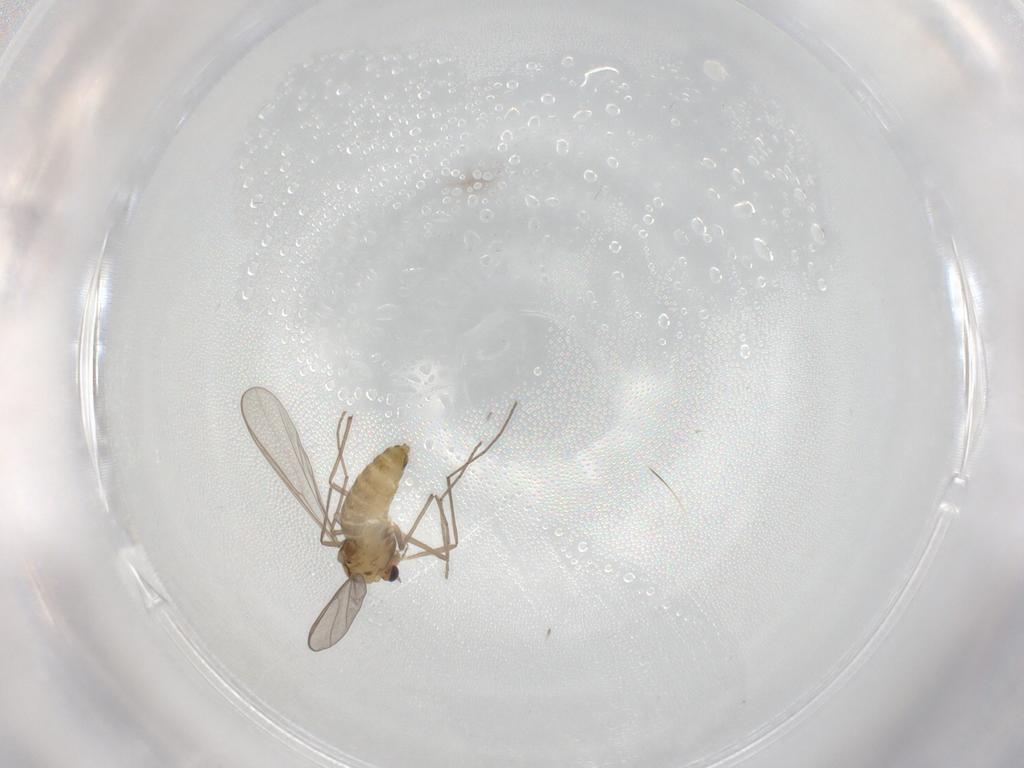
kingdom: Animalia
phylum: Arthropoda
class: Insecta
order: Diptera
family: Chironomidae
